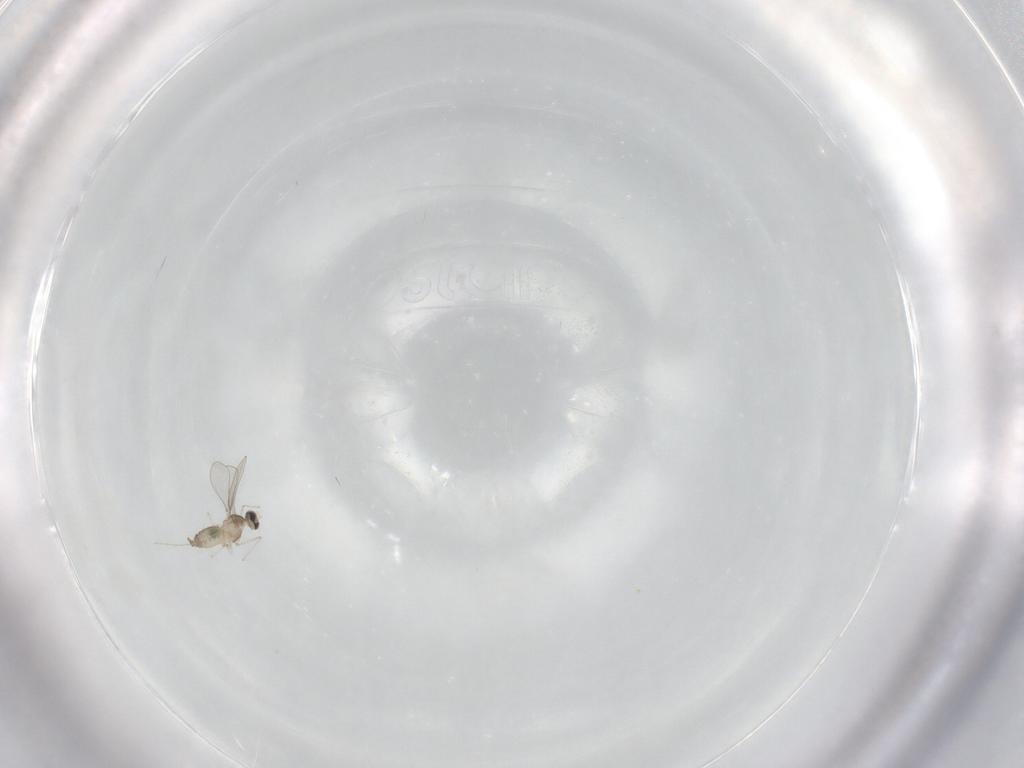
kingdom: Animalia
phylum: Arthropoda
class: Insecta
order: Diptera
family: Cecidomyiidae
